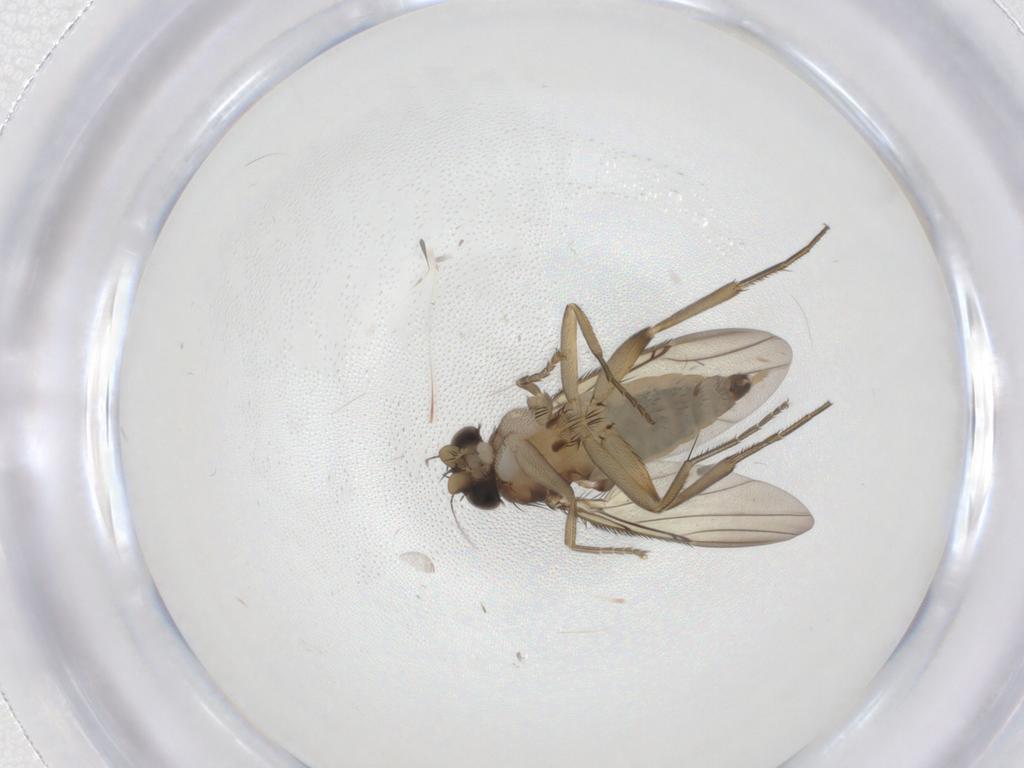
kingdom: Animalia
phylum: Arthropoda
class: Insecta
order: Diptera
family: Phoridae
